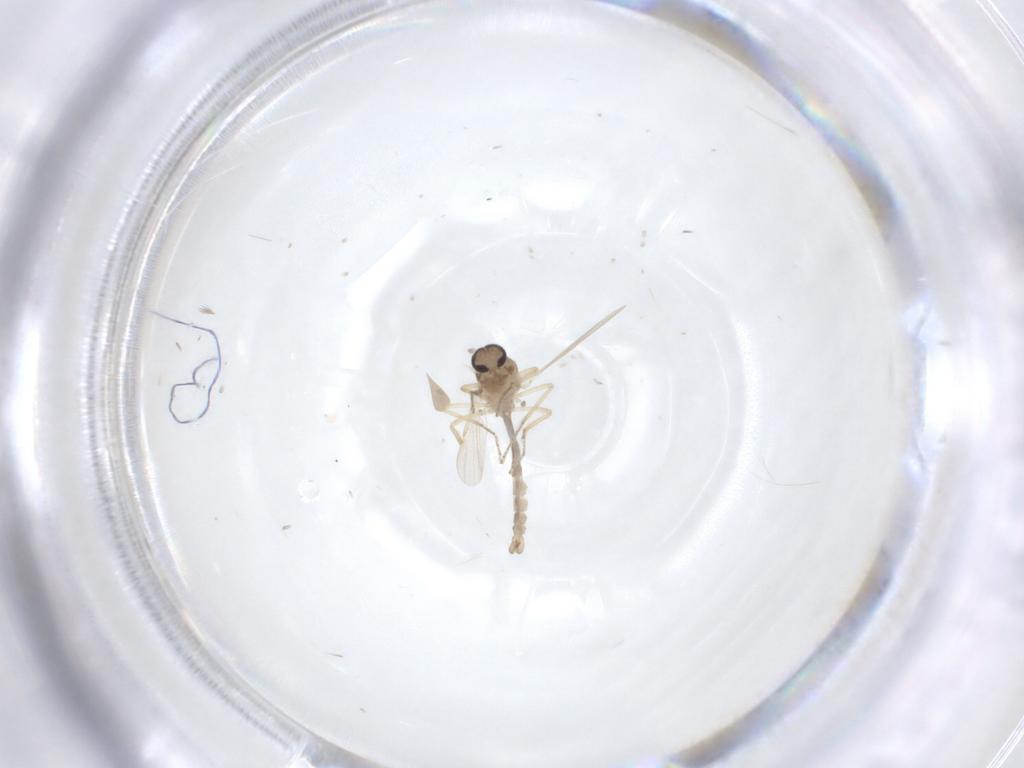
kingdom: Animalia
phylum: Arthropoda
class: Insecta
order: Diptera
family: Ceratopogonidae
